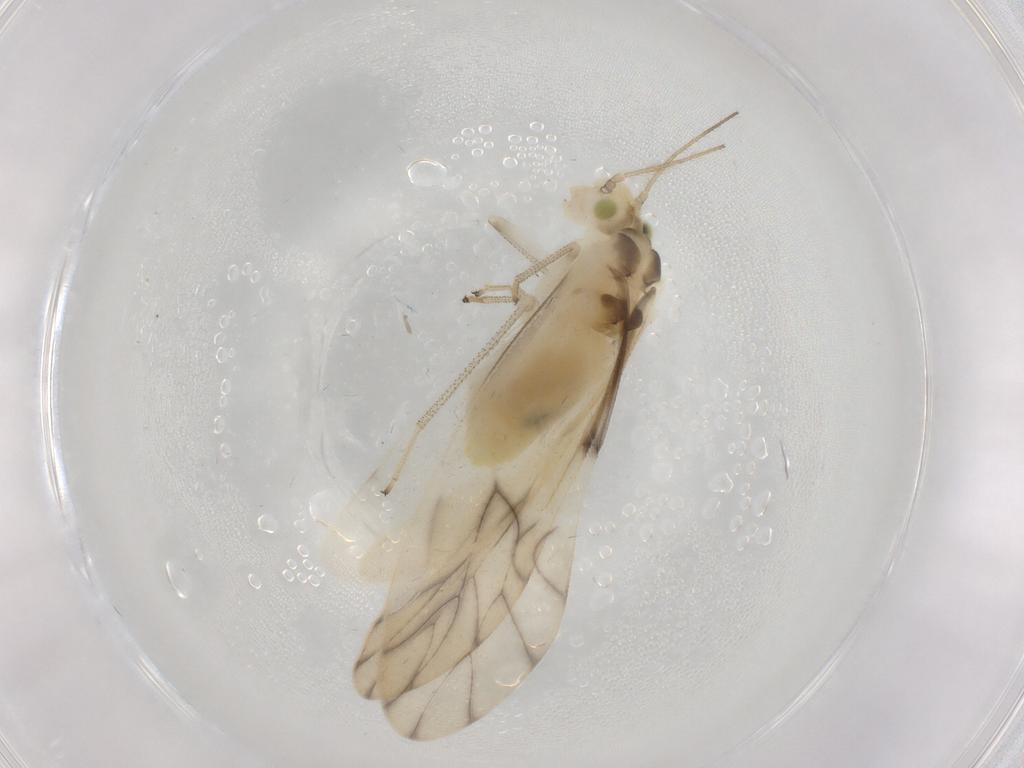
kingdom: Animalia
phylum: Arthropoda
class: Insecta
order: Psocodea
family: Caeciliusidae
